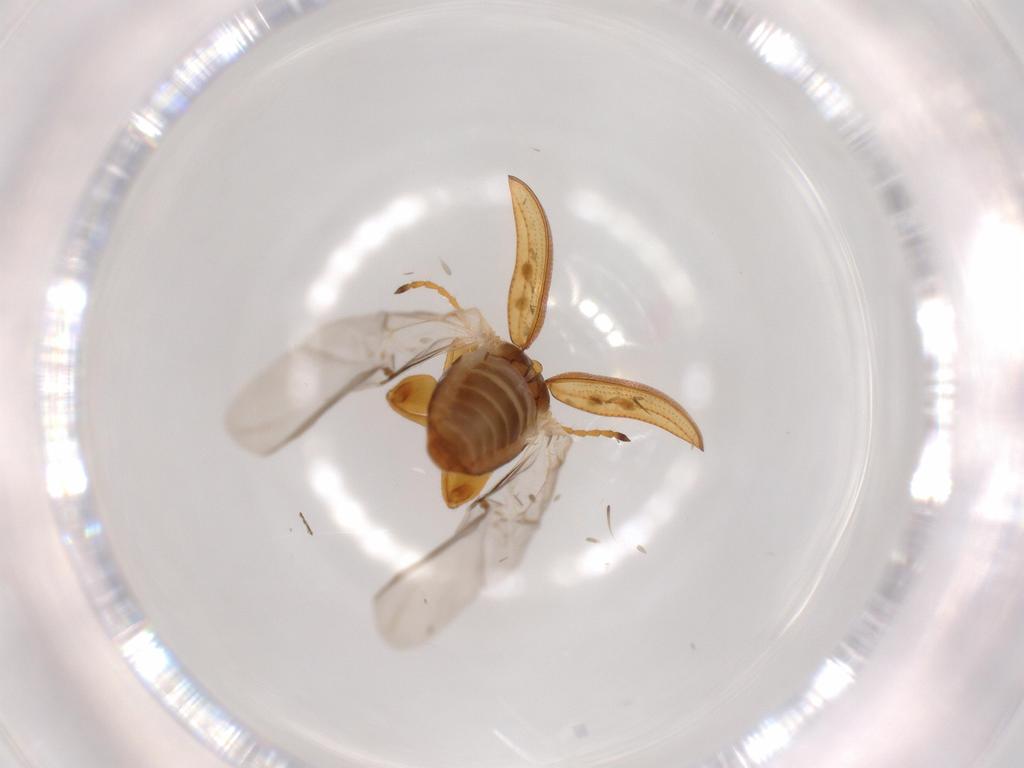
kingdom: Animalia
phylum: Arthropoda
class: Insecta
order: Coleoptera
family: Chrysomelidae
